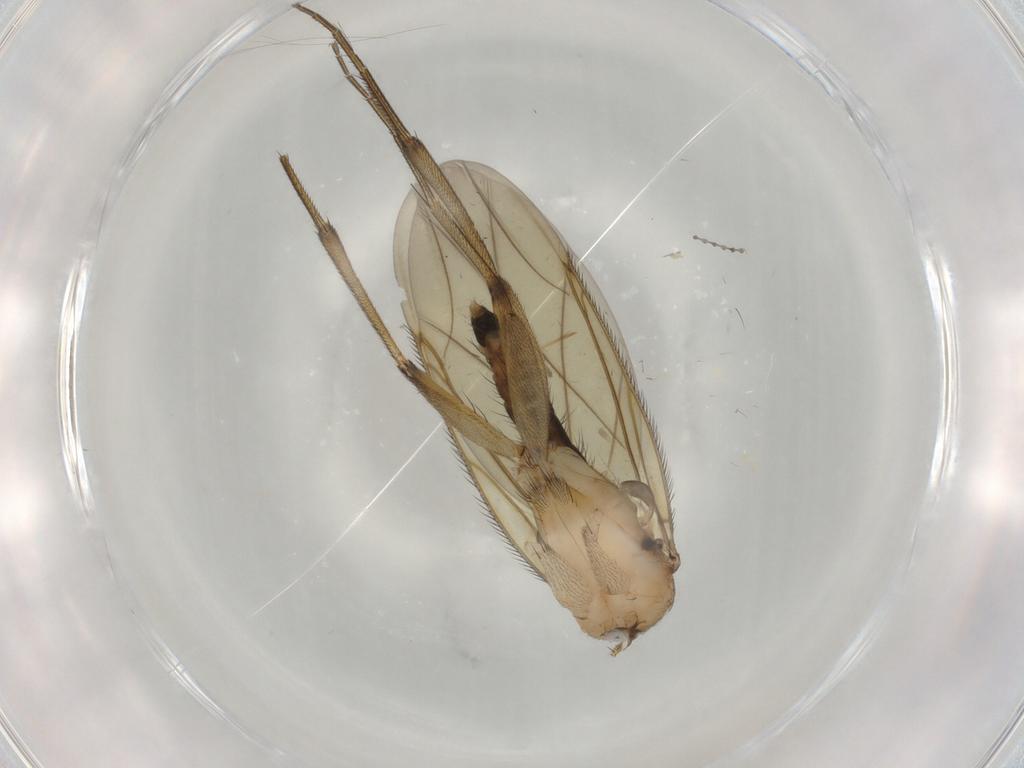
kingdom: Animalia
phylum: Arthropoda
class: Insecta
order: Diptera
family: Phoridae
